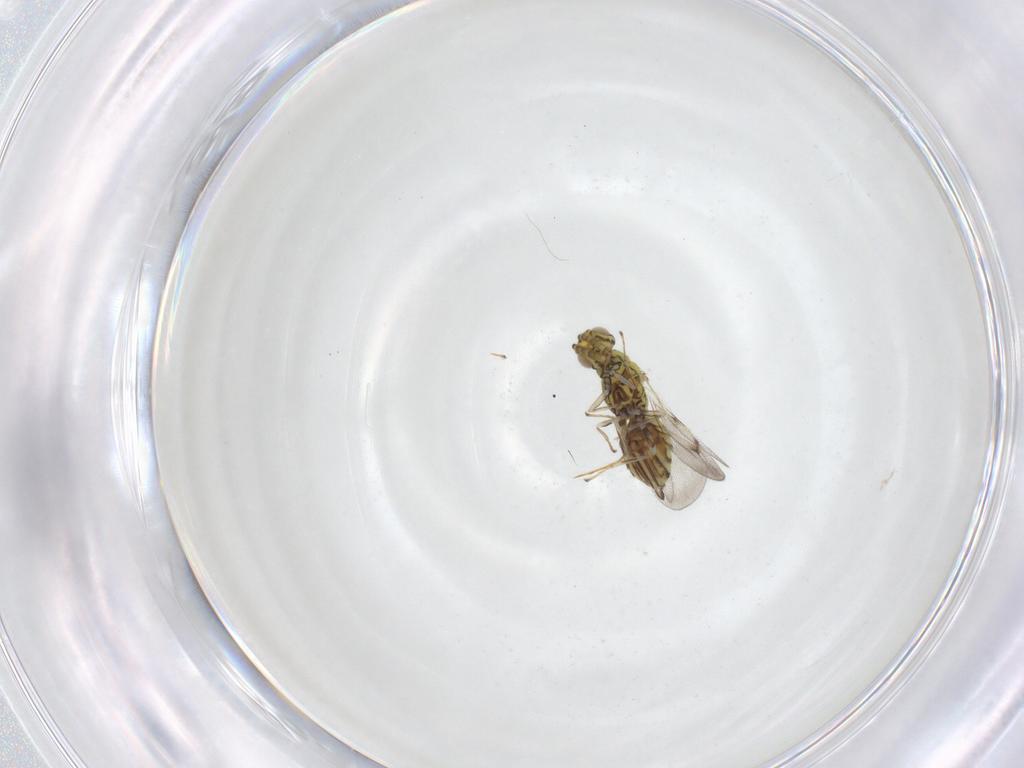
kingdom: Animalia
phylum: Arthropoda
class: Insecta
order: Hymenoptera
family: Eulophidae
